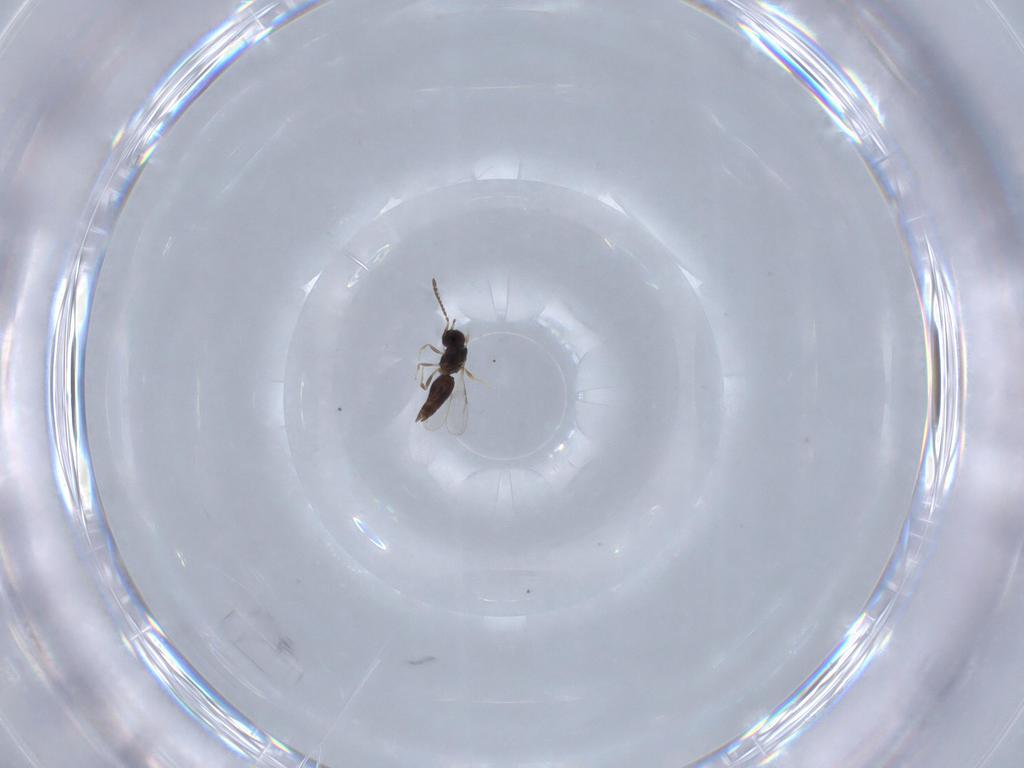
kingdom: Animalia
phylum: Arthropoda
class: Insecta
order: Hymenoptera
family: Ceraphronidae
